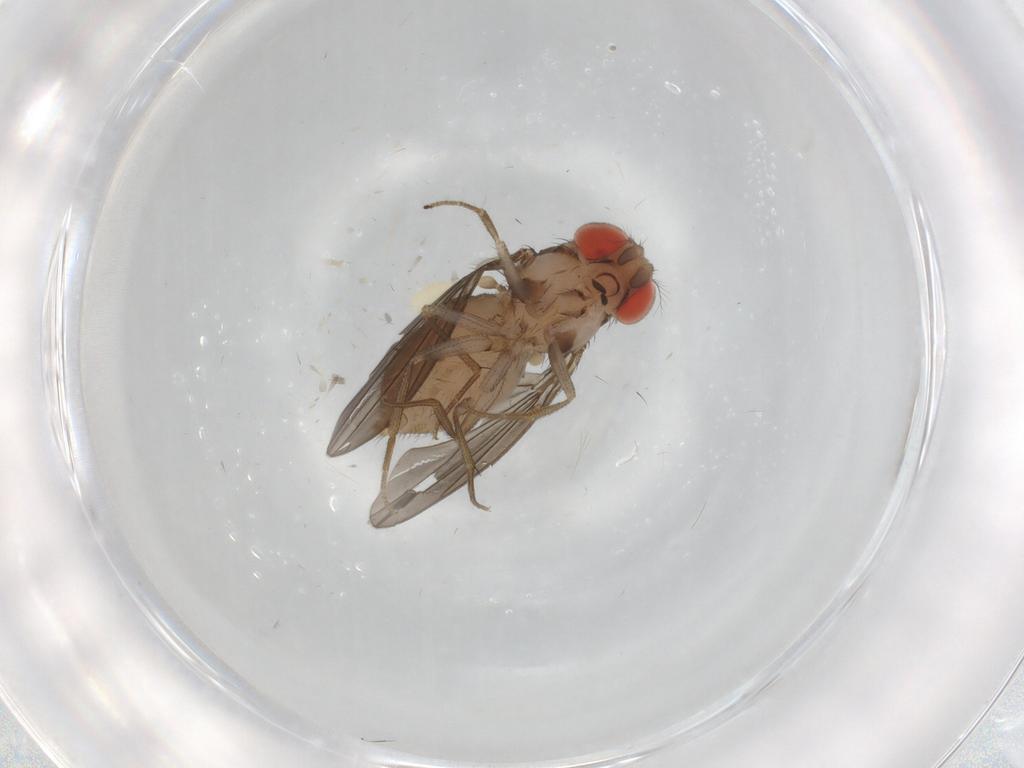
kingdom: Animalia
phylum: Arthropoda
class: Insecta
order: Diptera
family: Drosophilidae
